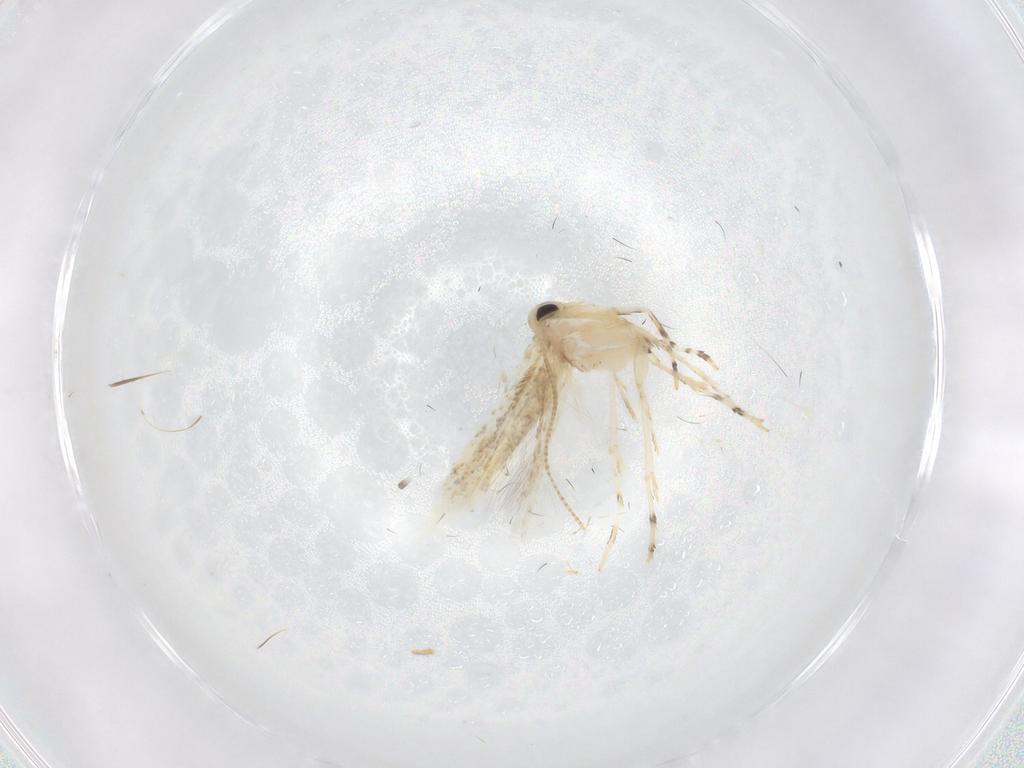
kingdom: Animalia
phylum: Arthropoda
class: Insecta
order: Lepidoptera
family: Gracillariidae
